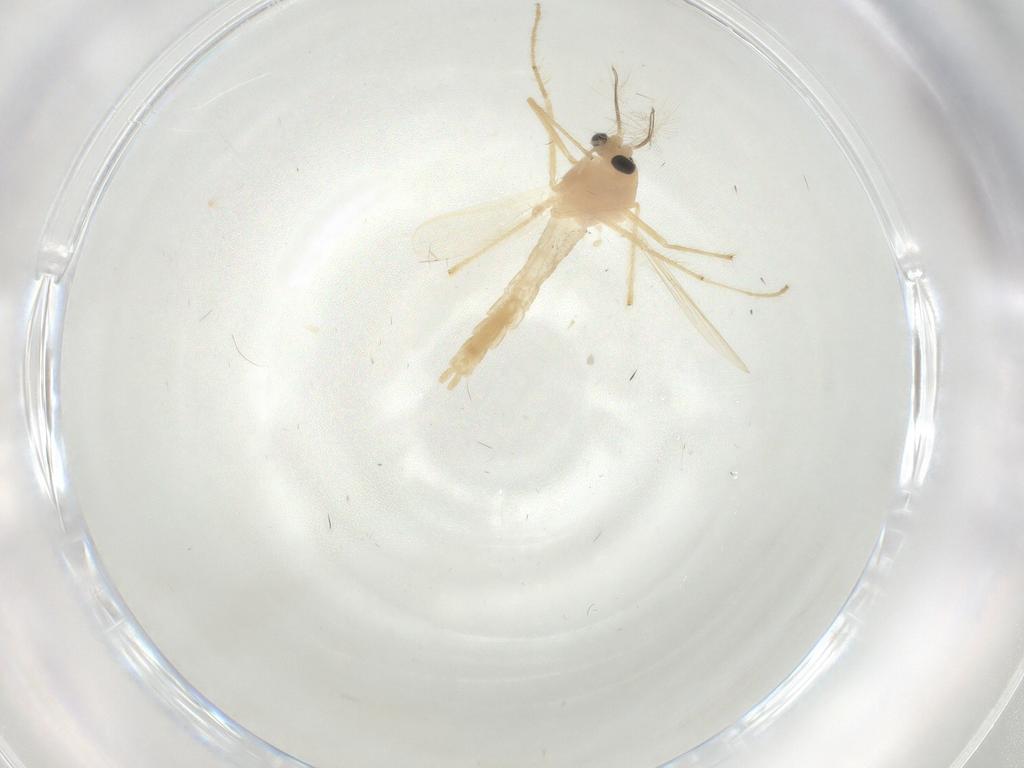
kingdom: Animalia
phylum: Arthropoda
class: Insecta
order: Diptera
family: Chironomidae
